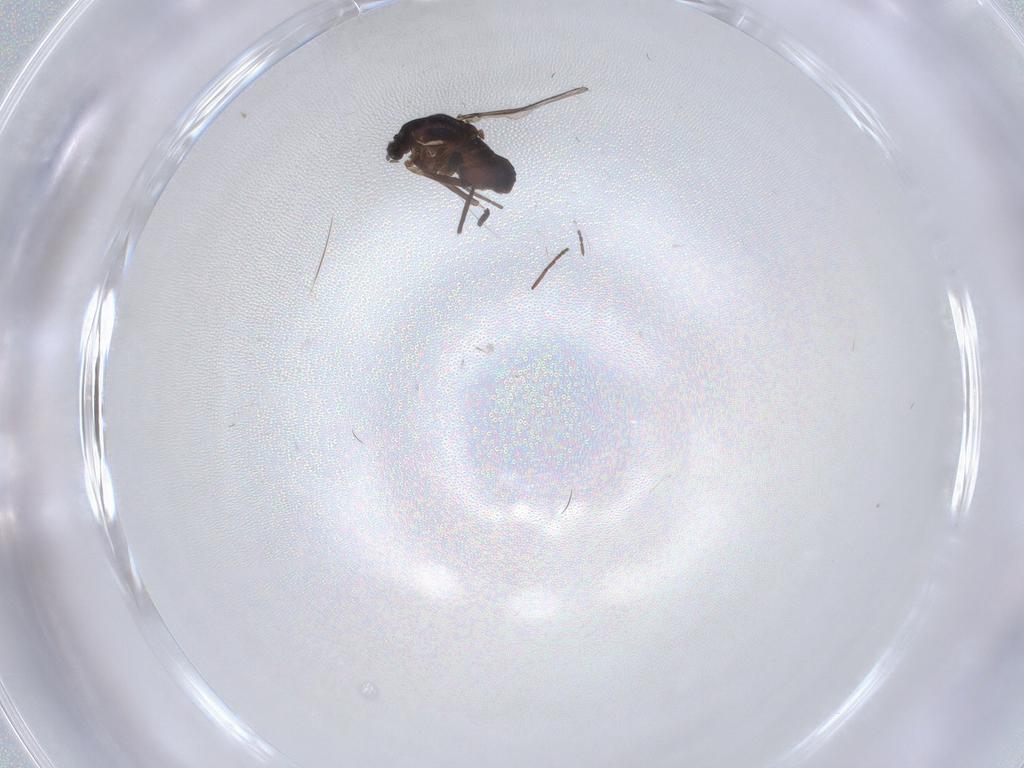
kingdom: Animalia
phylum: Arthropoda
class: Insecta
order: Diptera
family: Chironomidae
